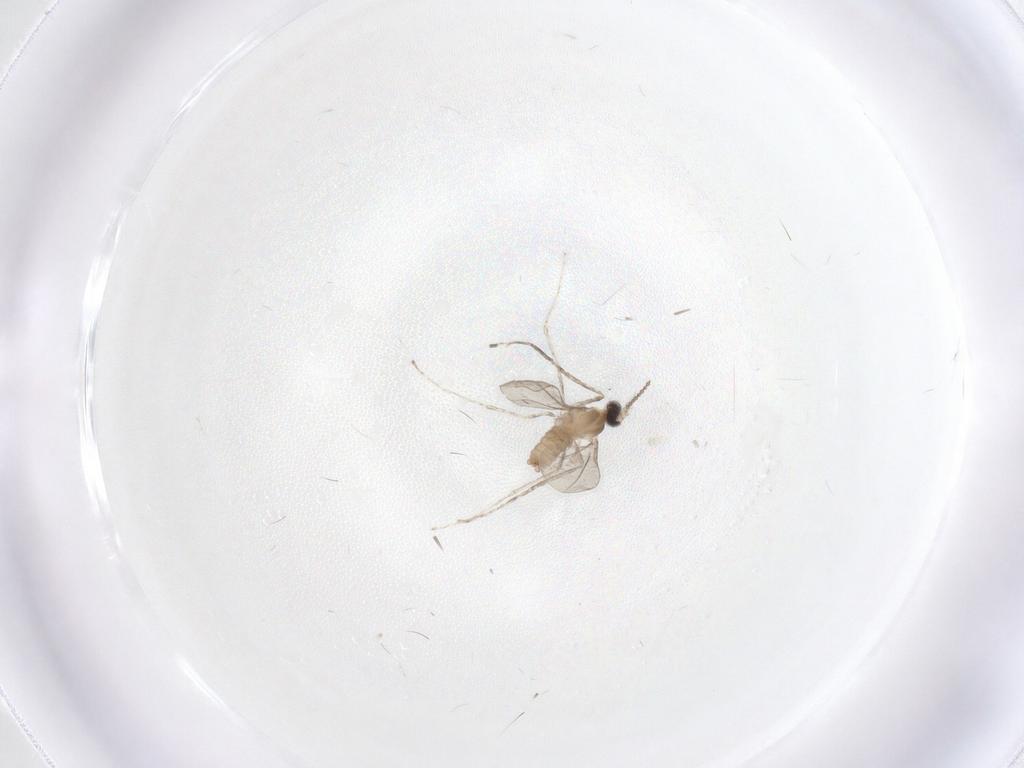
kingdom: Animalia
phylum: Arthropoda
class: Insecta
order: Diptera
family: Cecidomyiidae
